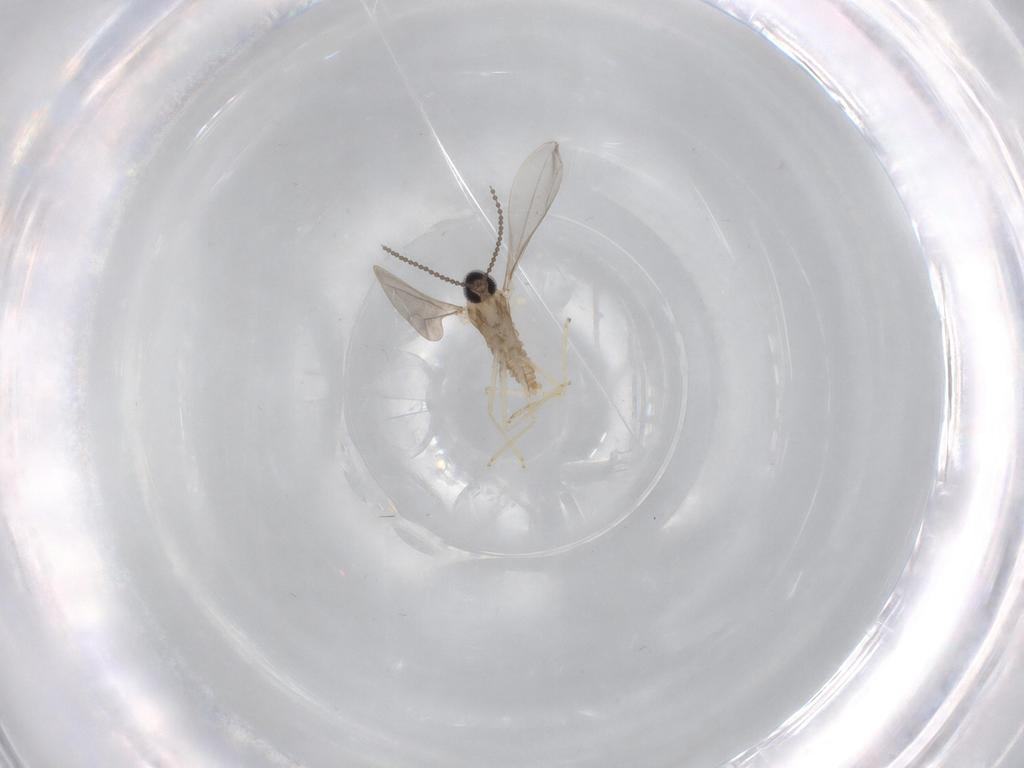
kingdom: Animalia
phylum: Arthropoda
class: Insecta
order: Diptera
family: Cecidomyiidae
